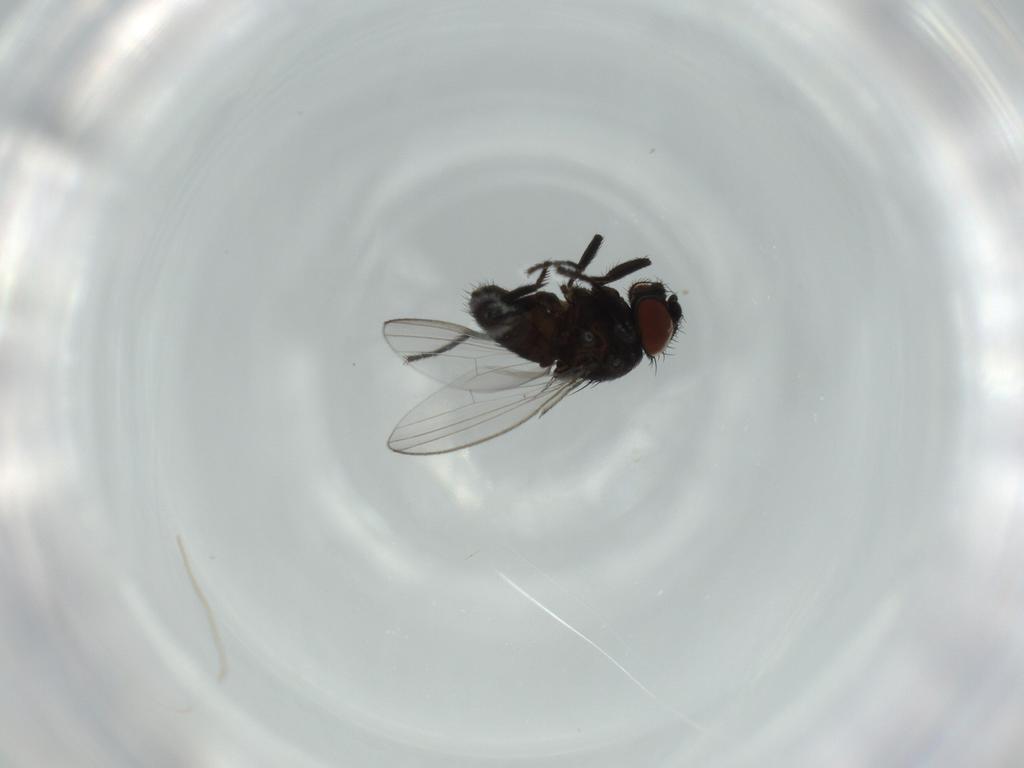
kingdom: Animalia
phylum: Arthropoda
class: Insecta
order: Diptera
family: Milichiidae
